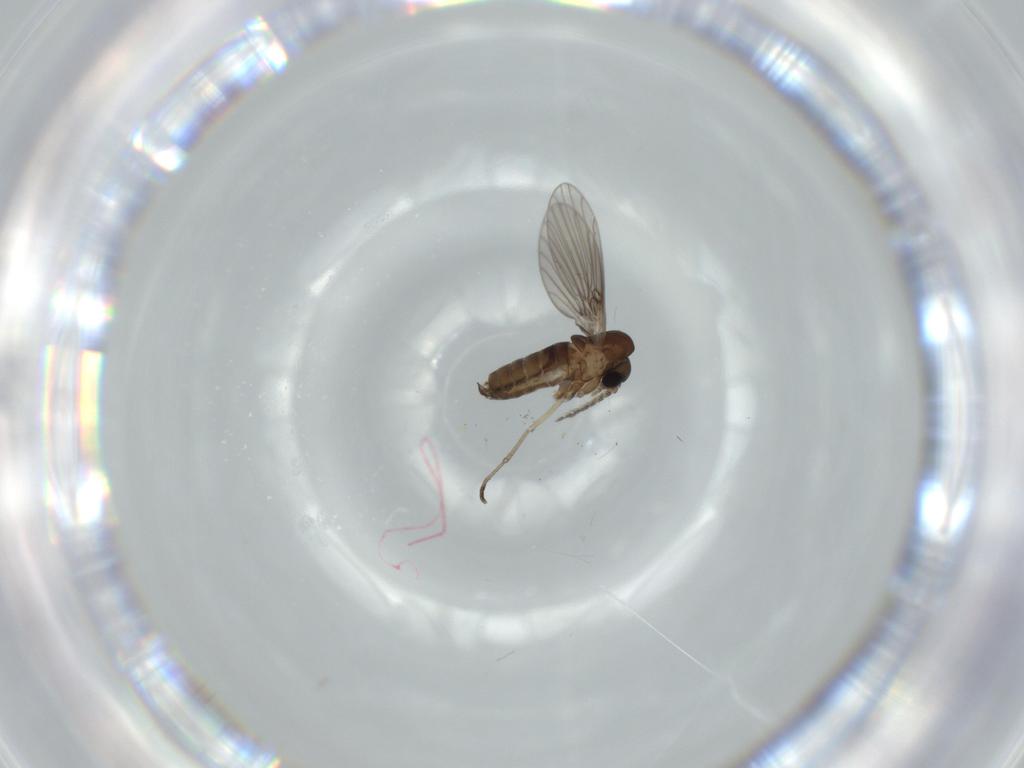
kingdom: Animalia
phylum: Arthropoda
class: Insecta
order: Diptera
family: Psychodidae
